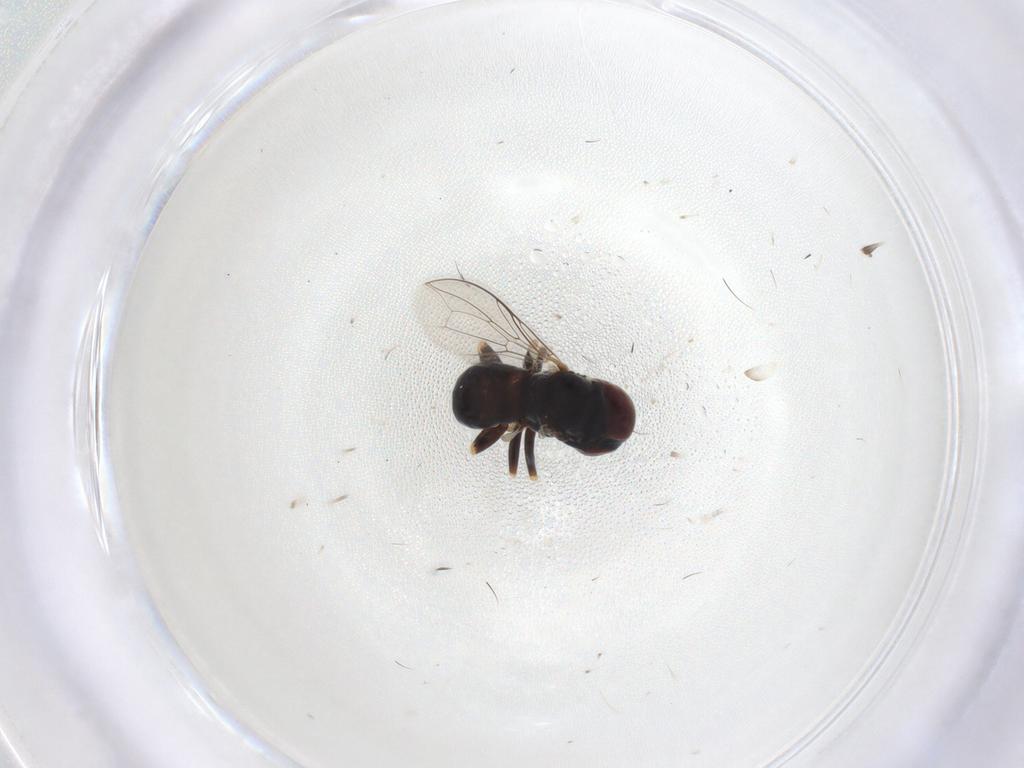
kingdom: Animalia
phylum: Arthropoda
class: Insecta
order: Diptera
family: Pipunculidae
